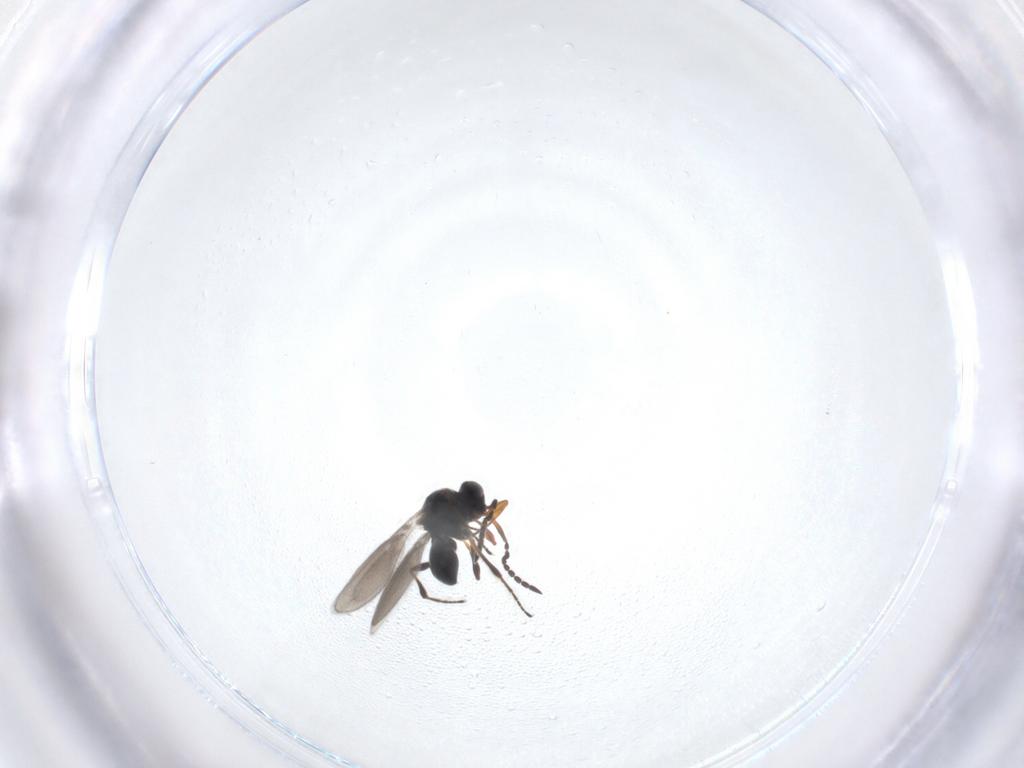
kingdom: Animalia
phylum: Arthropoda
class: Insecta
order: Hymenoptera
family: Platygastridae
